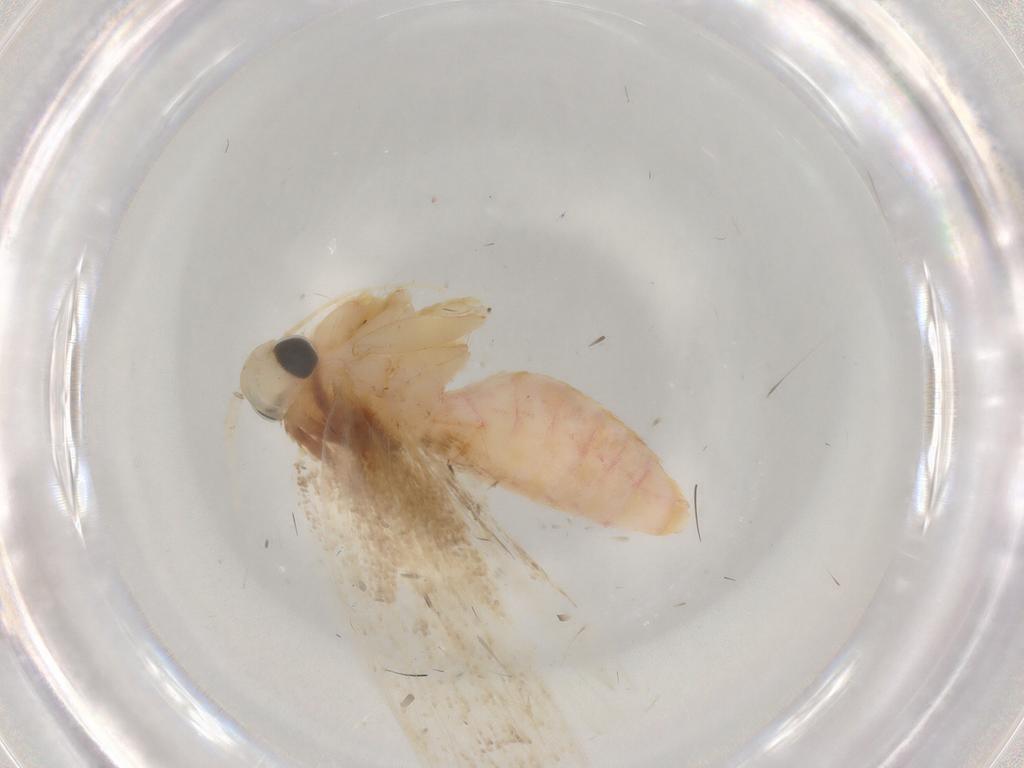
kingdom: Animalia
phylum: Arthropoda
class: Insecta
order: Lepidoptera
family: Lecithoceridae
